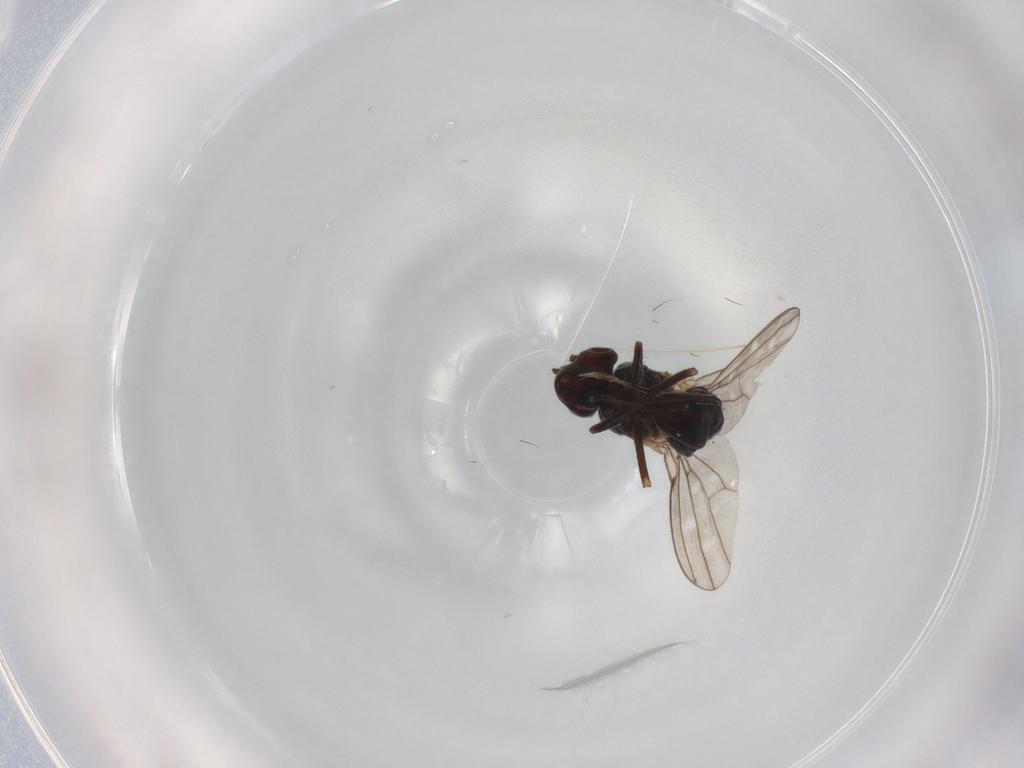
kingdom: Animalia
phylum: Arthropoda
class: Insecta
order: Diptera
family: Ephydridae
